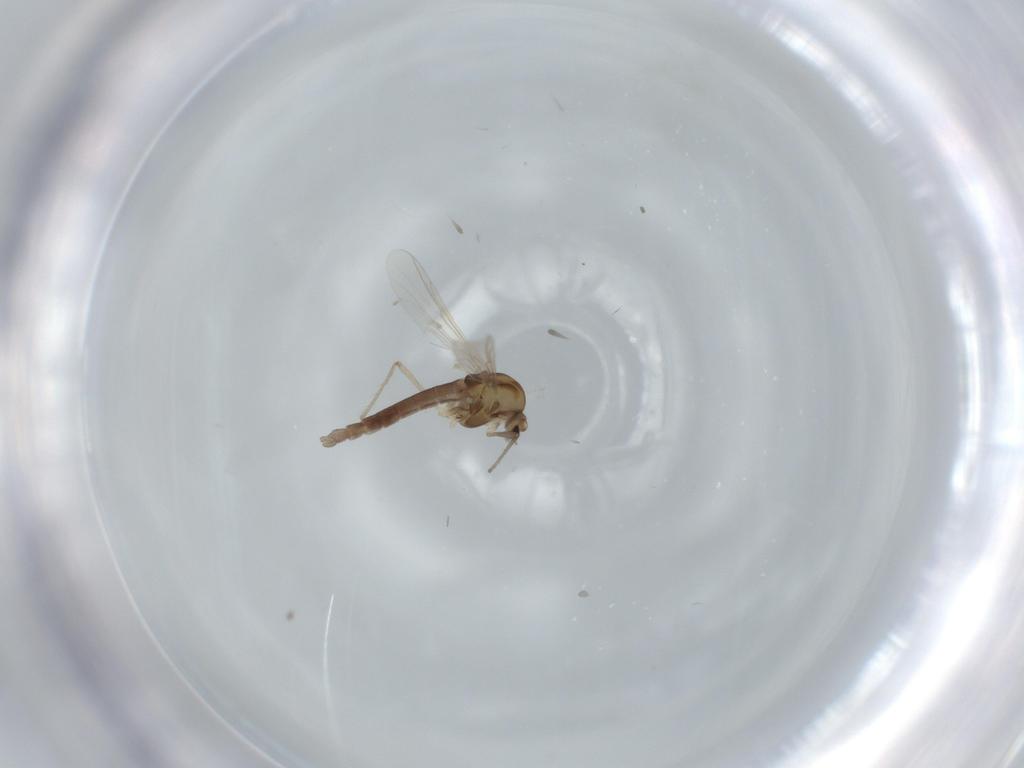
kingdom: Animalia
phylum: Arthropoda
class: Insecta
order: Diptera
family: Chironomidae
